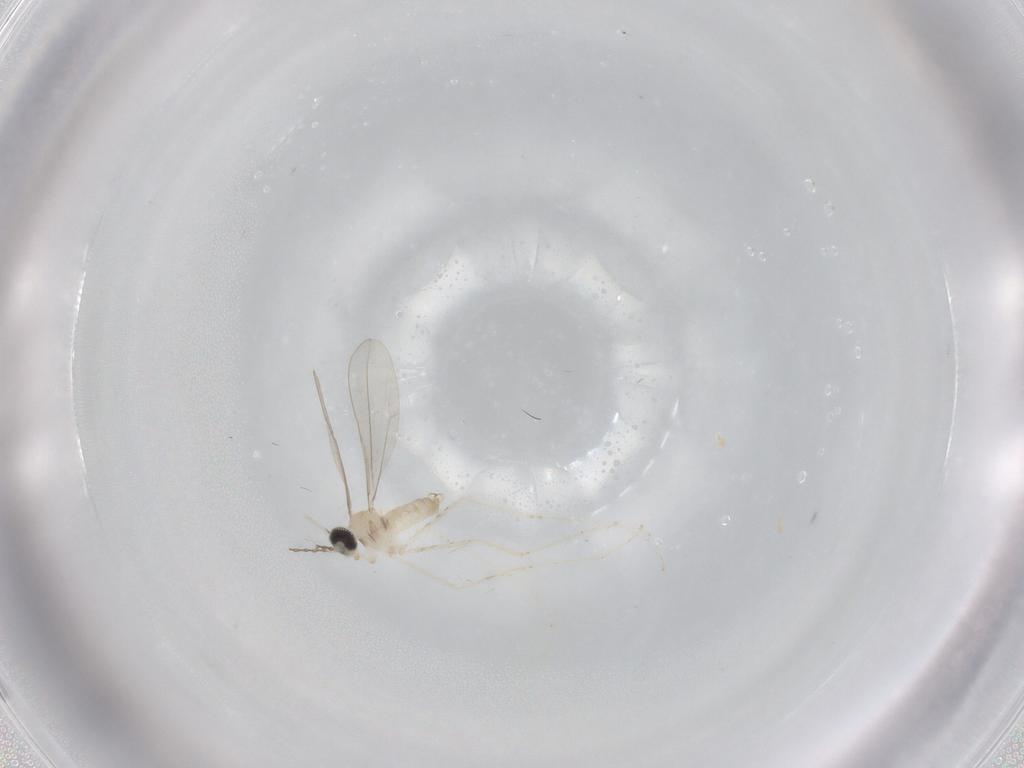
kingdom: Animalia
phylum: Arthropoda
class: Insecta
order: Diptera
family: Cecidomyiidae
